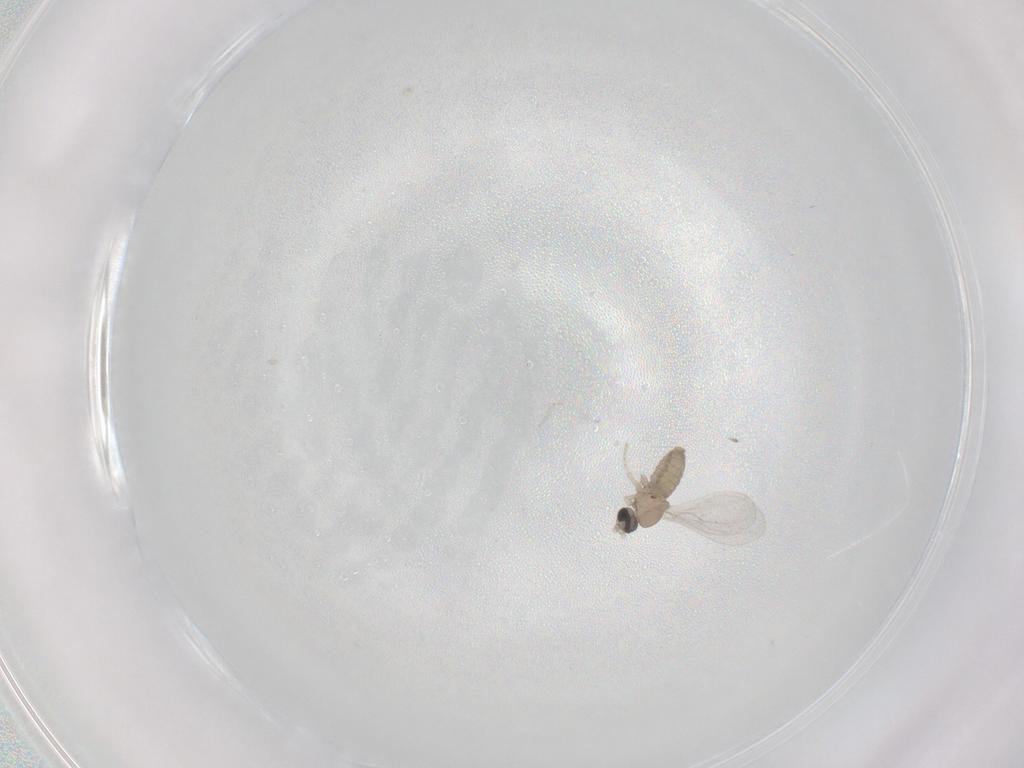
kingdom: Animalia
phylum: Arthropoda
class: Insecta
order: Diptera
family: Cecidomyiidae
